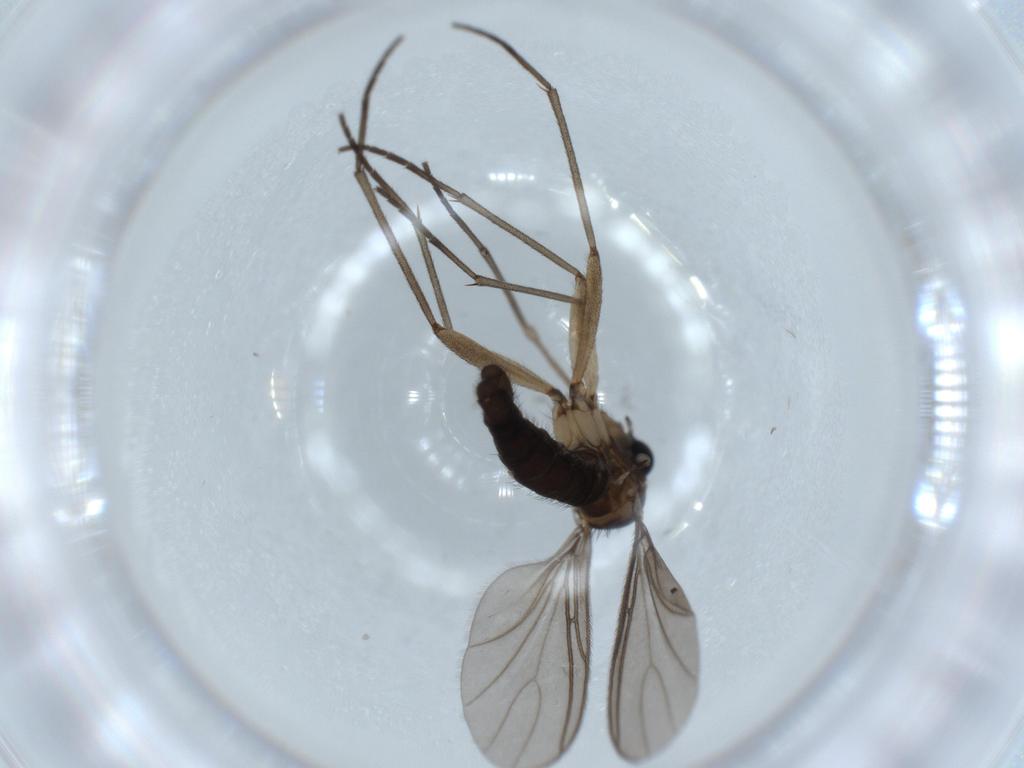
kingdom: Animalia
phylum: Arthropoda
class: Insecta
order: Diptera
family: Sciaridae
